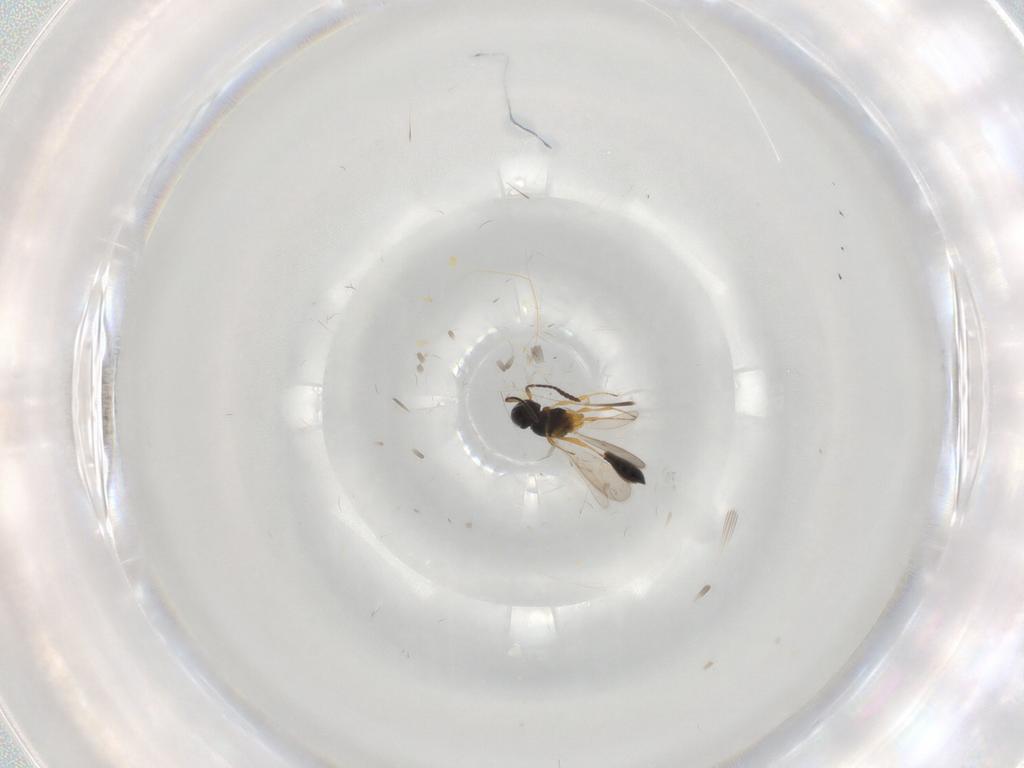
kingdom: Animalia
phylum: Arthropoda
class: Insecta
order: Hymenoptera
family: Scelionidae
